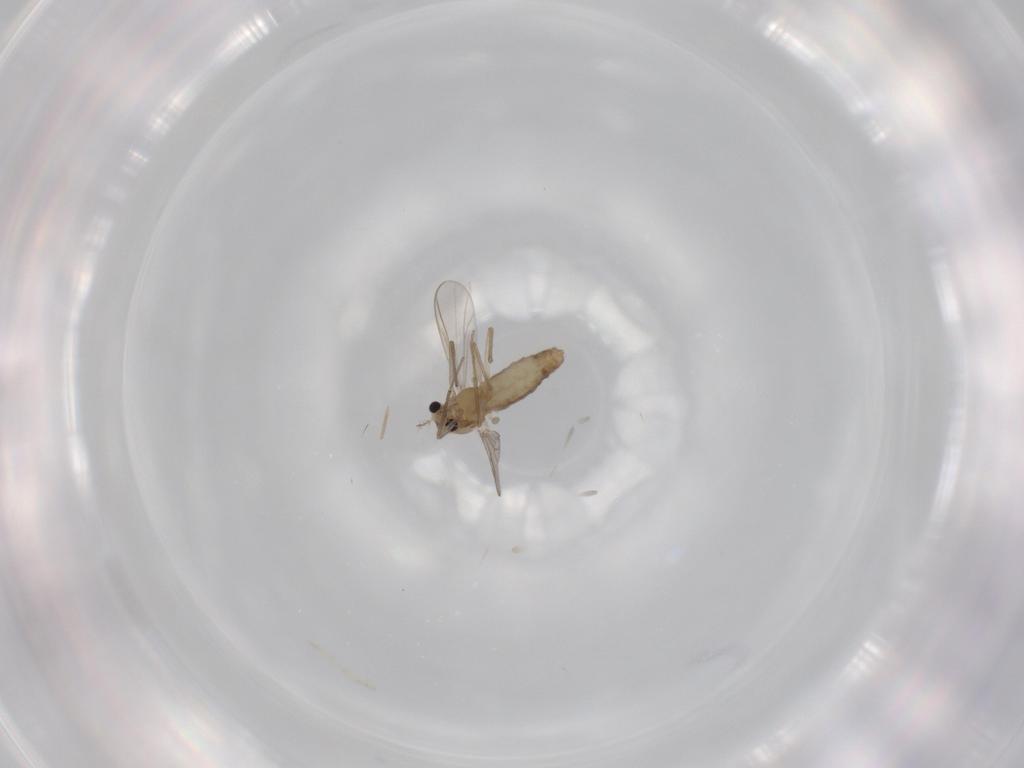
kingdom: Animalia
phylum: Arthropoda
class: Insecta
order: Diptera
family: Chironomidae
